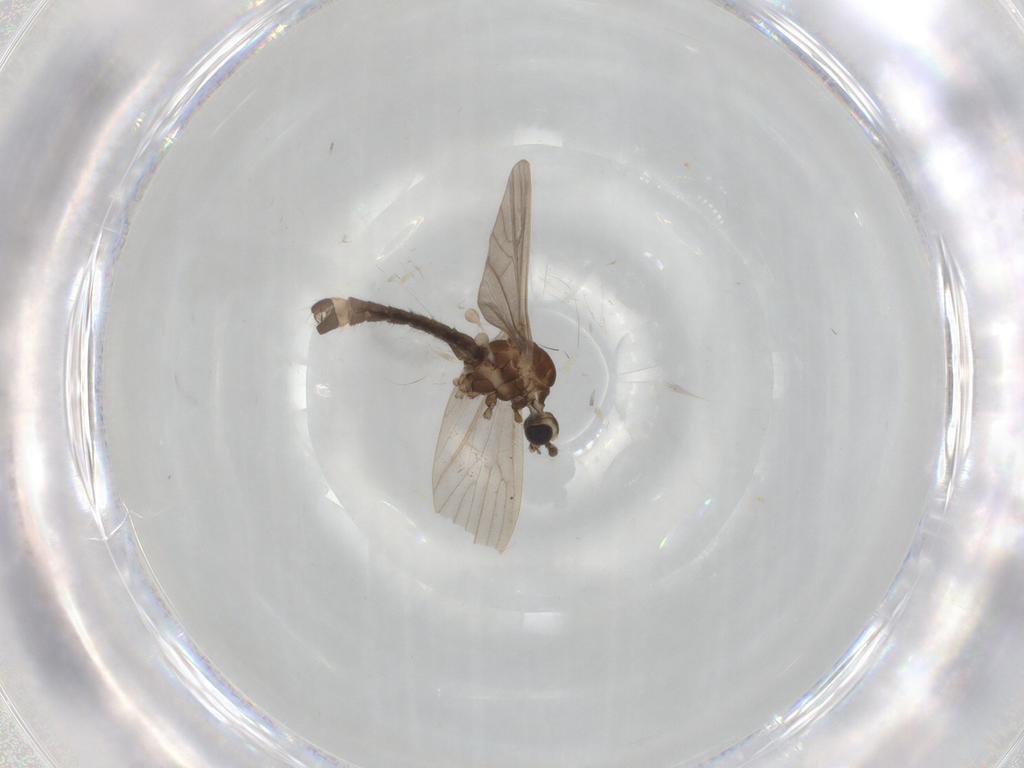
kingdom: Animalia
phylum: Arthropoda
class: Insecta
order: Diptera
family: Limoniidae
